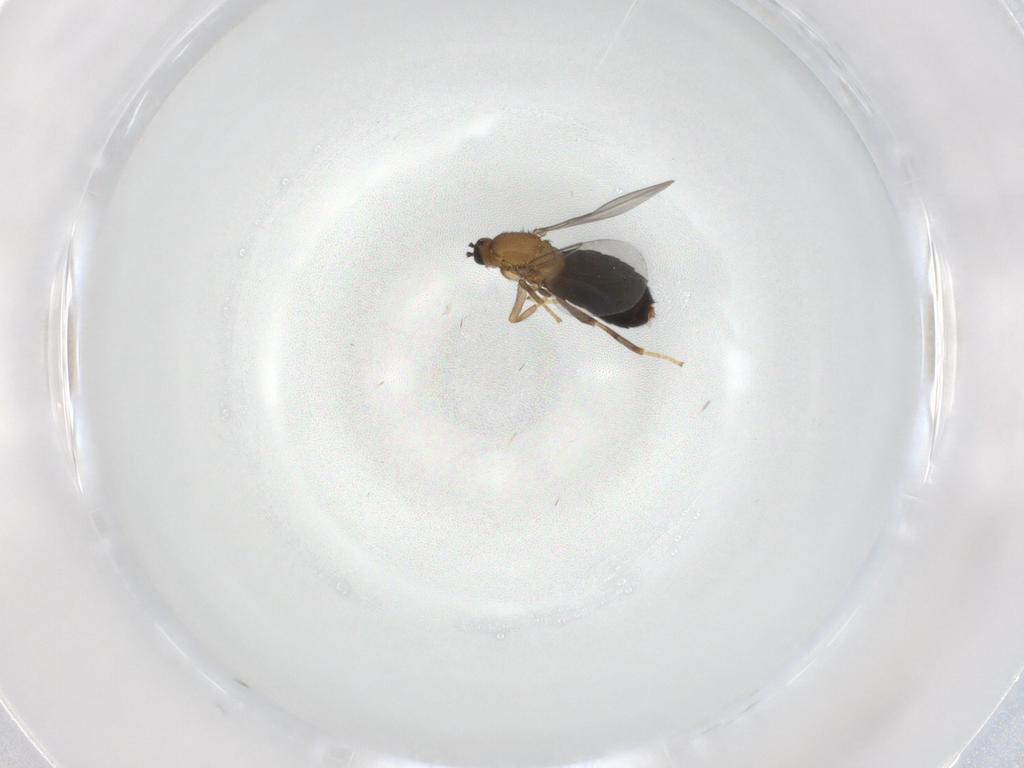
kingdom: Animalia
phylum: Arthropoda
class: Insecta
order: Diptera
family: Scatopsidae
